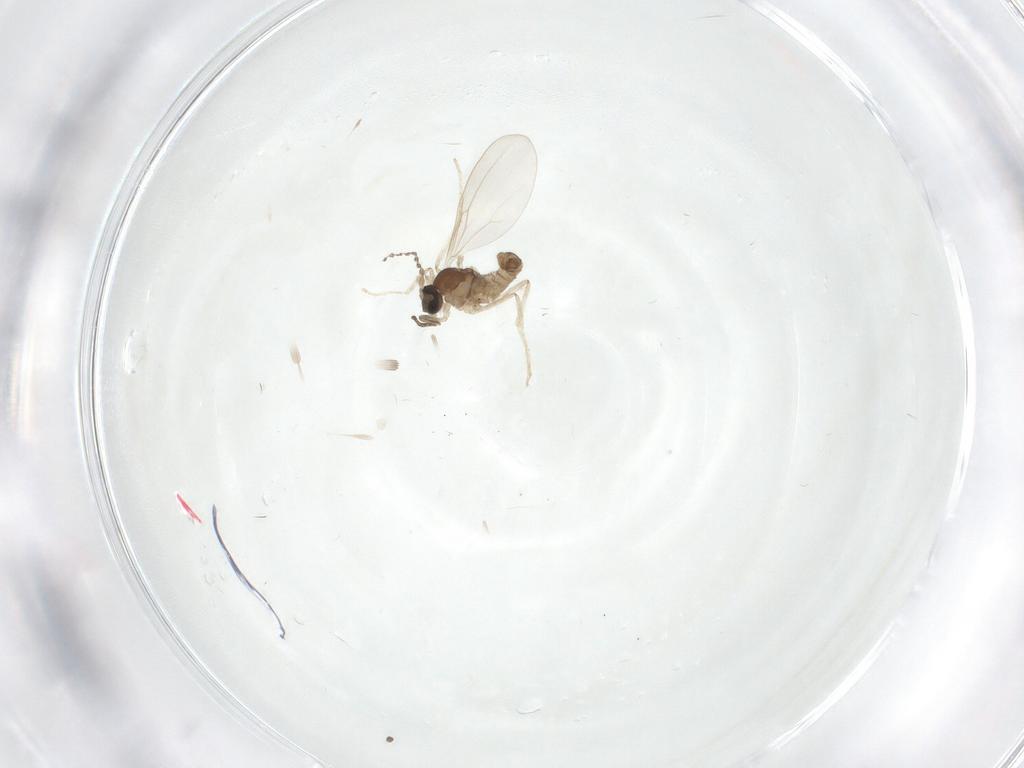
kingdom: Animalia
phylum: Arthropoda
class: Insecta
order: Diptera
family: Cecidomyiidae
